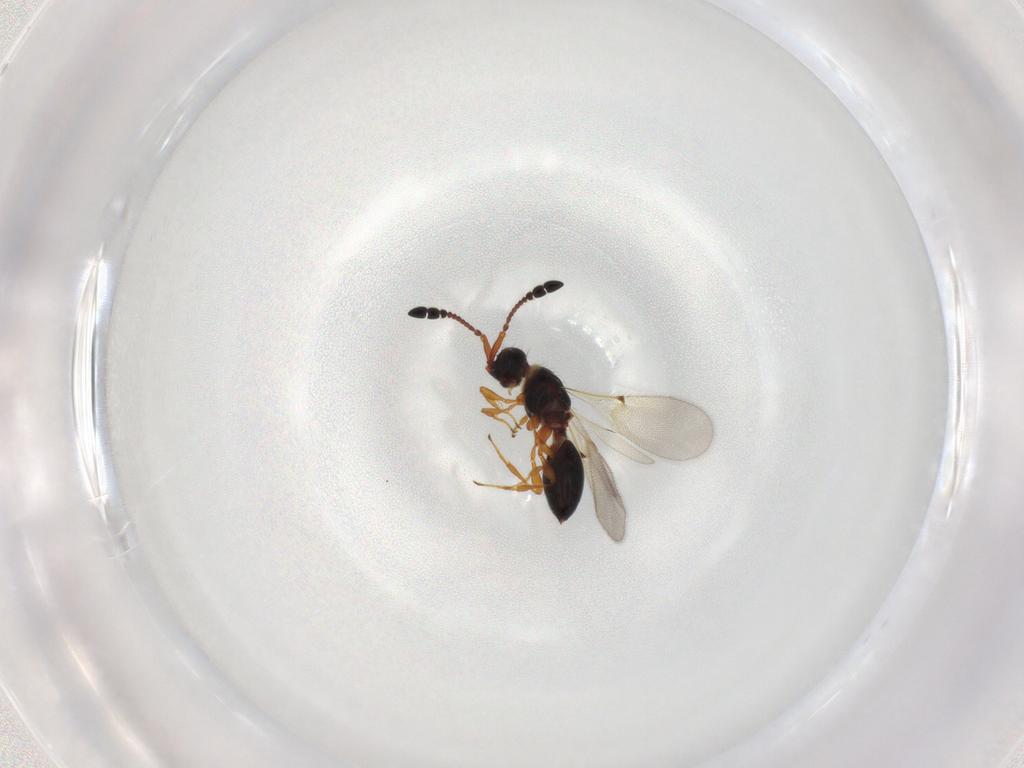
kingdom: Animalia
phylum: Arthropoda
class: Insecta
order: Hymenoptera
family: Diapriidae
